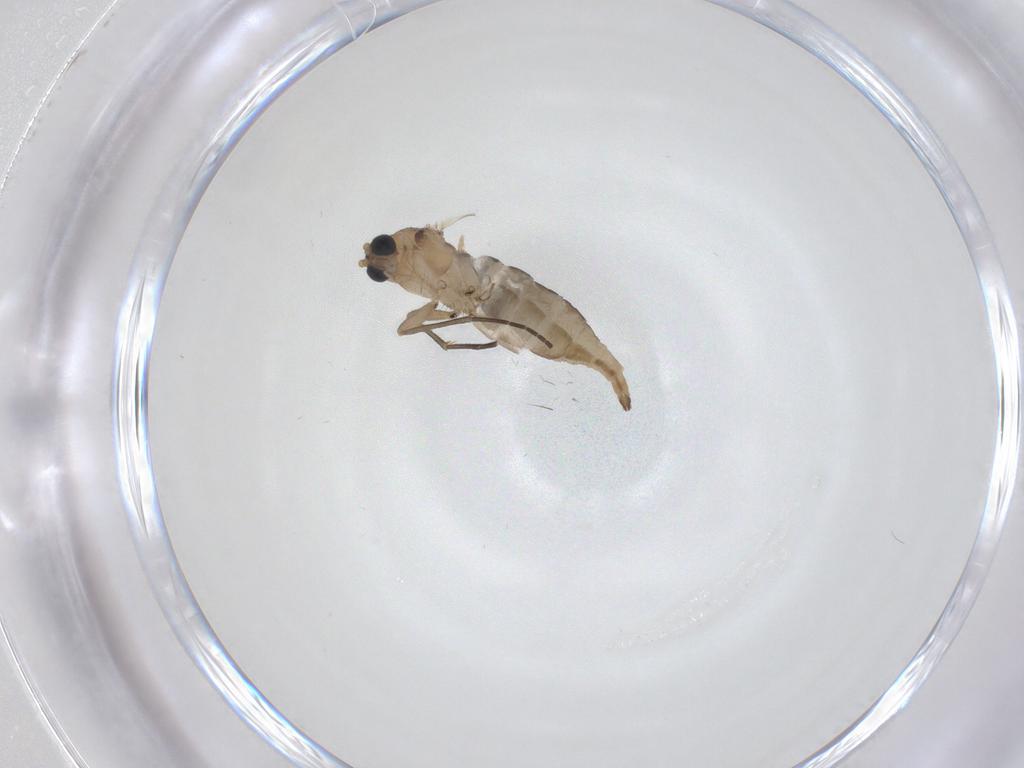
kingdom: Animalia
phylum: Arthropoda
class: Insecta
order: Diptera
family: Sciaridae
